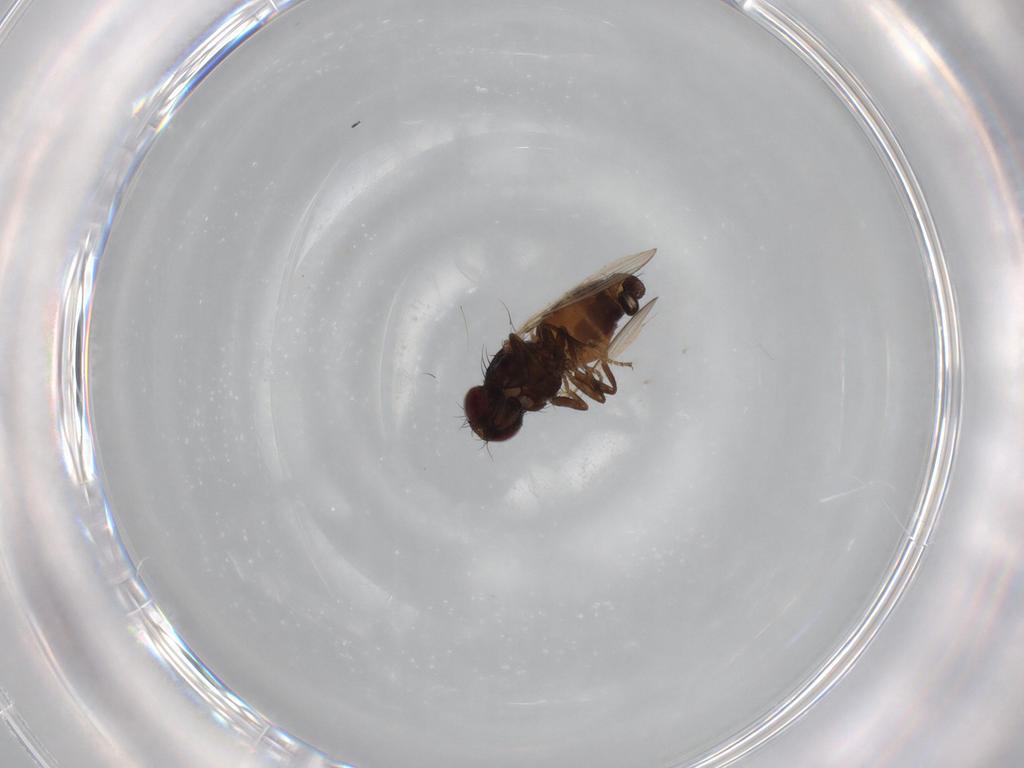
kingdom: Animalia
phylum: Arthropoda
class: Insecta
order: Diptera
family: Carnidae
